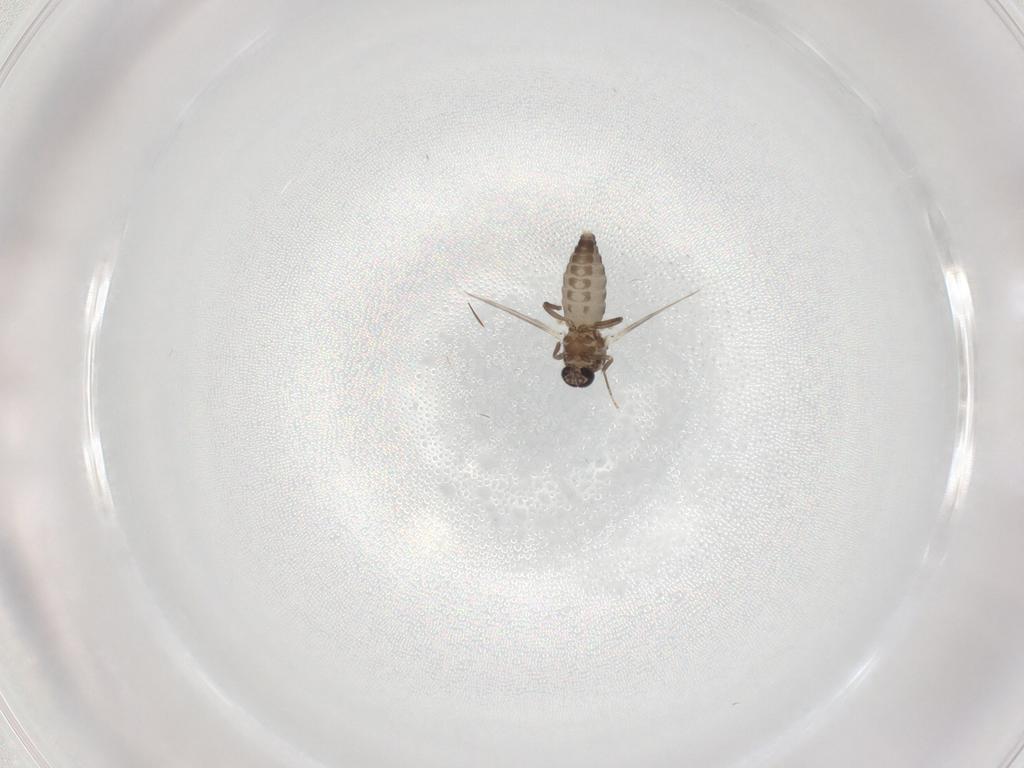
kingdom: Animalia
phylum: Arthropoda
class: Insecta
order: Diptera
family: Ceratopogonidae
